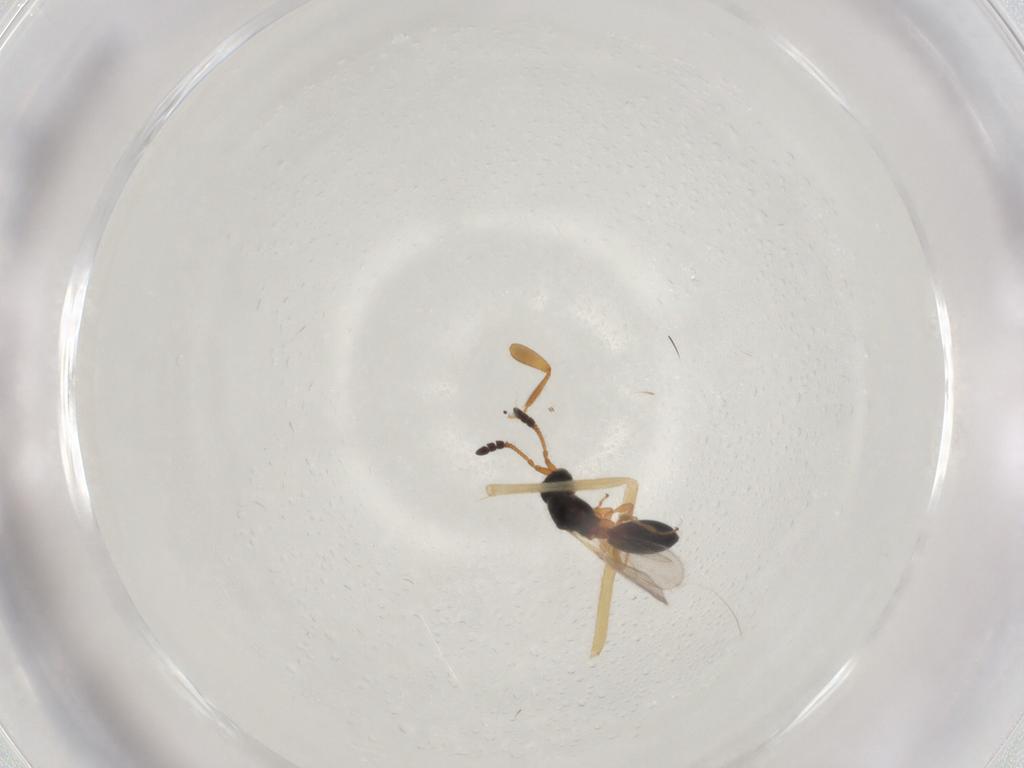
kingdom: Animalia
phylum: Arthropoda
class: Insecta
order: Diptera
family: Chironomidae
